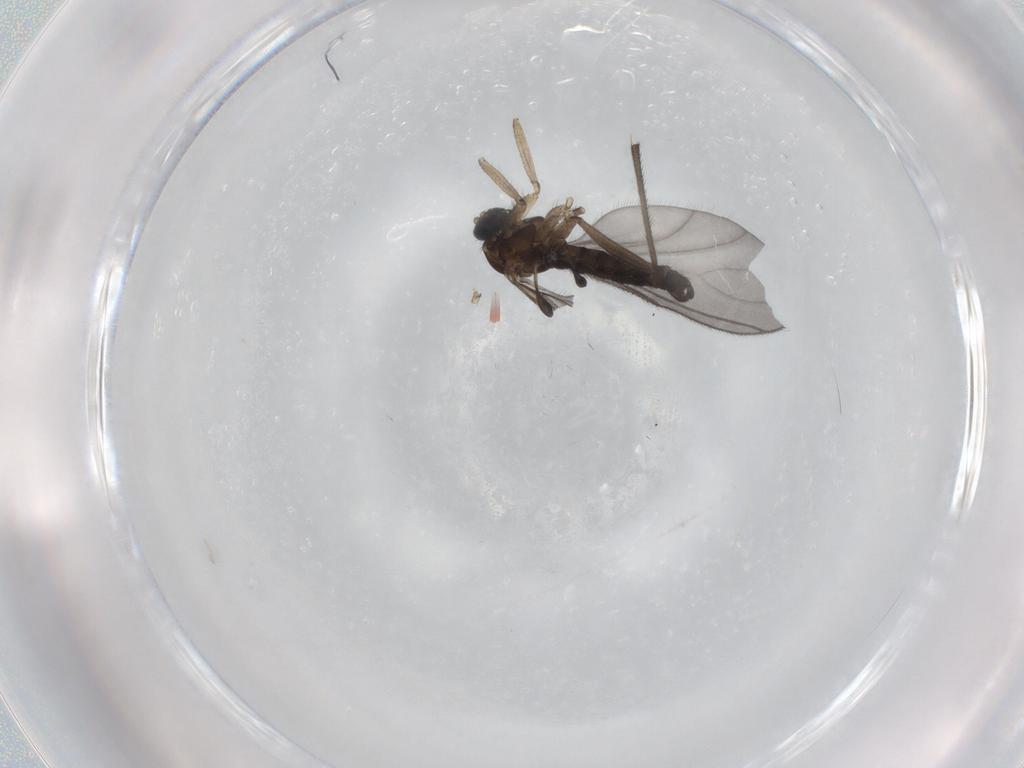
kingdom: Animalia
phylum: Arthropoda
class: Insecta
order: Diptera
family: Sciaridae
